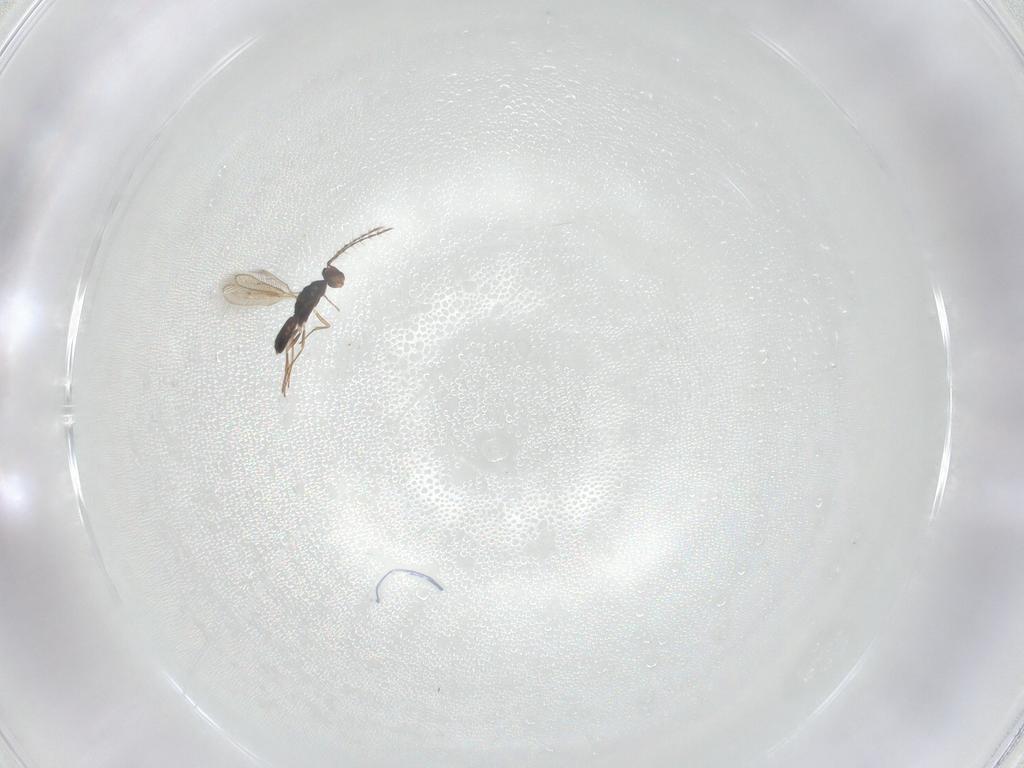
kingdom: Animalia
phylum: Arthropoda
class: Insecta
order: Hymenoptera
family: Pteromalidae
